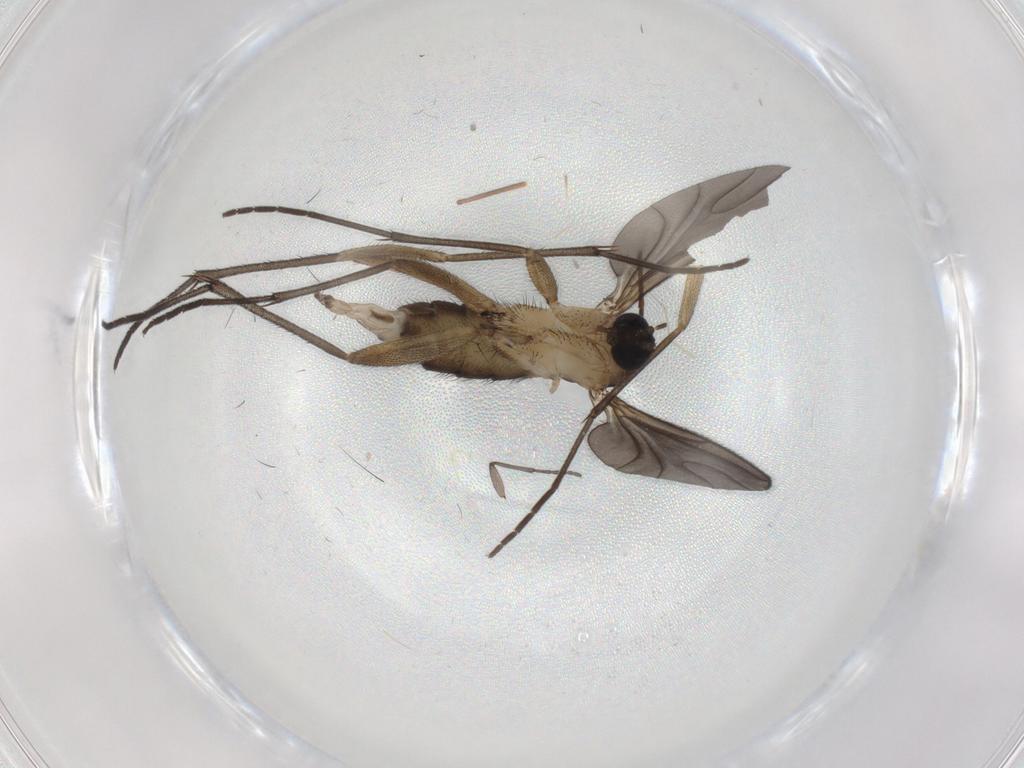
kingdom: Animalia
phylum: Arthropoda
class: Insecta
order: Diptera
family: Sciaridae
